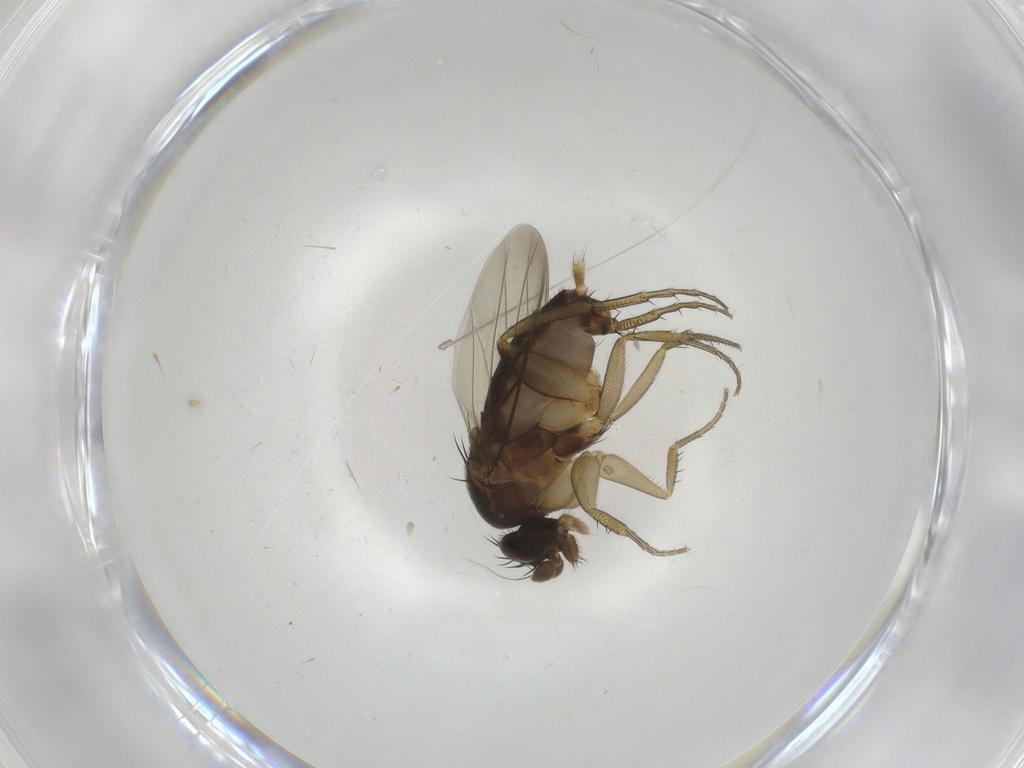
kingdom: Animalia
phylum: Arthropoda
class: Insecta
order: Diptera
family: Phoridae
